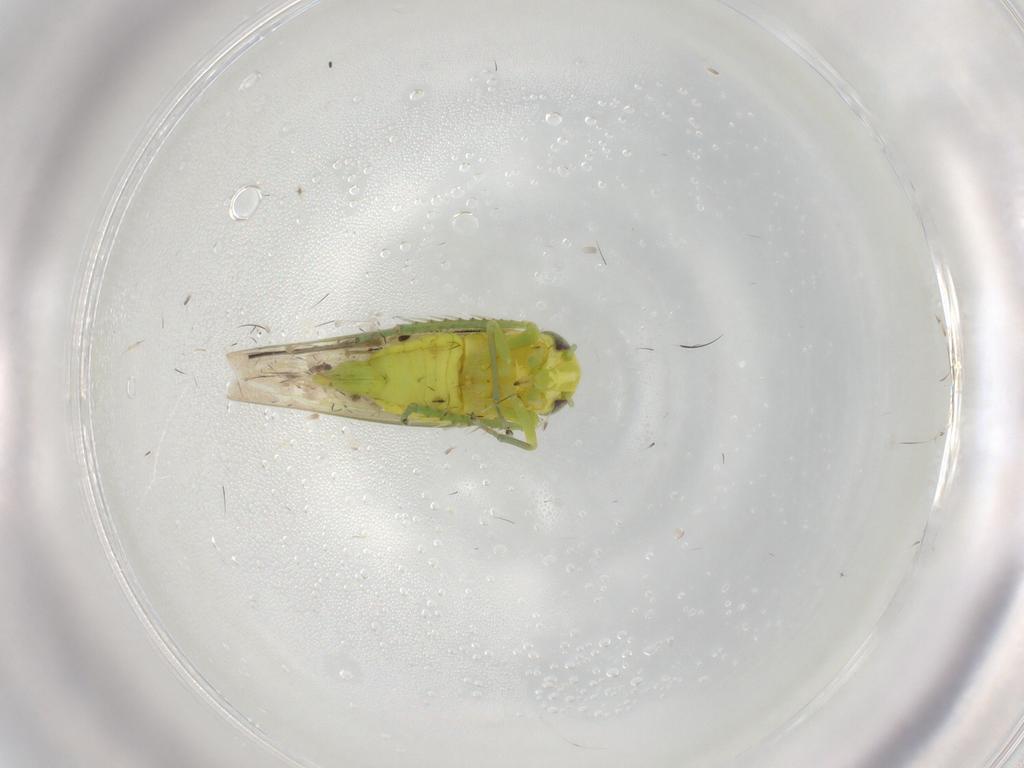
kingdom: Animalia
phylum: Arthropoda
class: Insecta
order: Hemiptera
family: Cicadellidae
